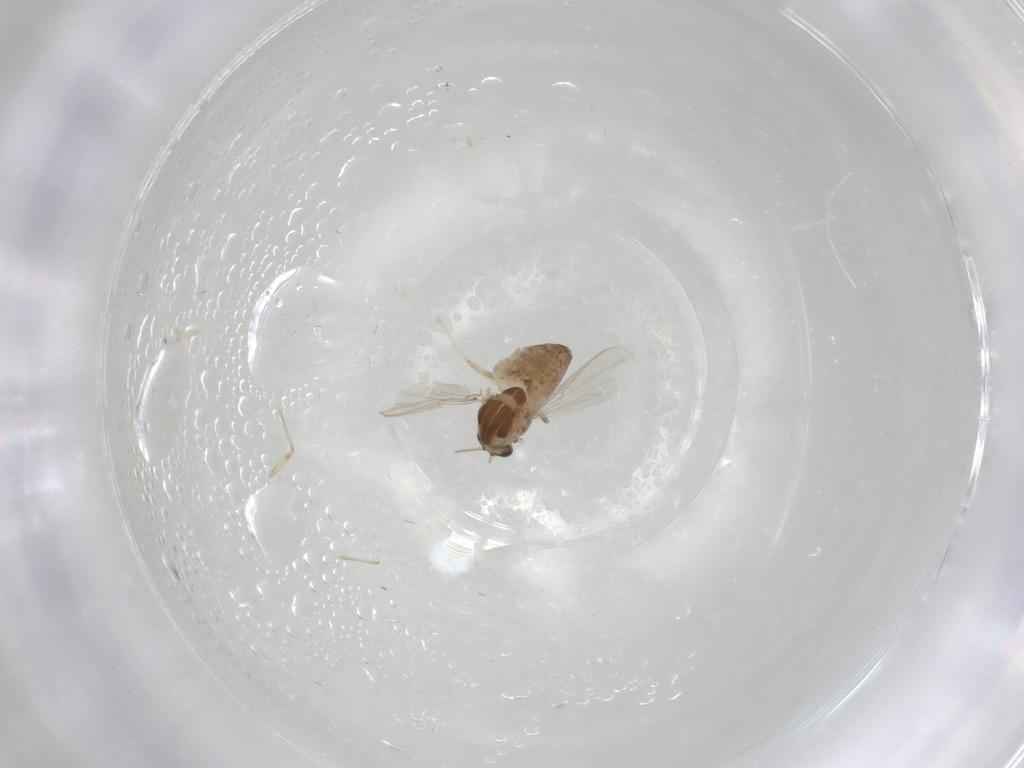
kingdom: Animalia
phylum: Arthropoda
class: Insecta
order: Diptera
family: Chironomidae
